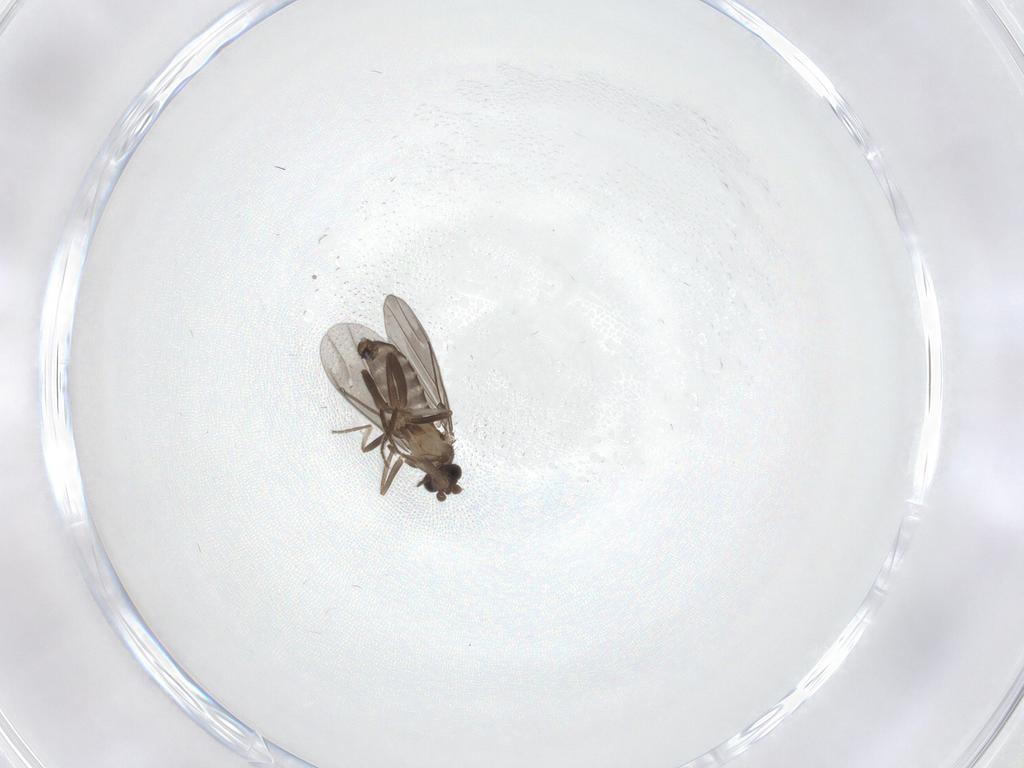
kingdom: Animalia
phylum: Arthropoda
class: Insecta
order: Diptera
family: Phoridae
